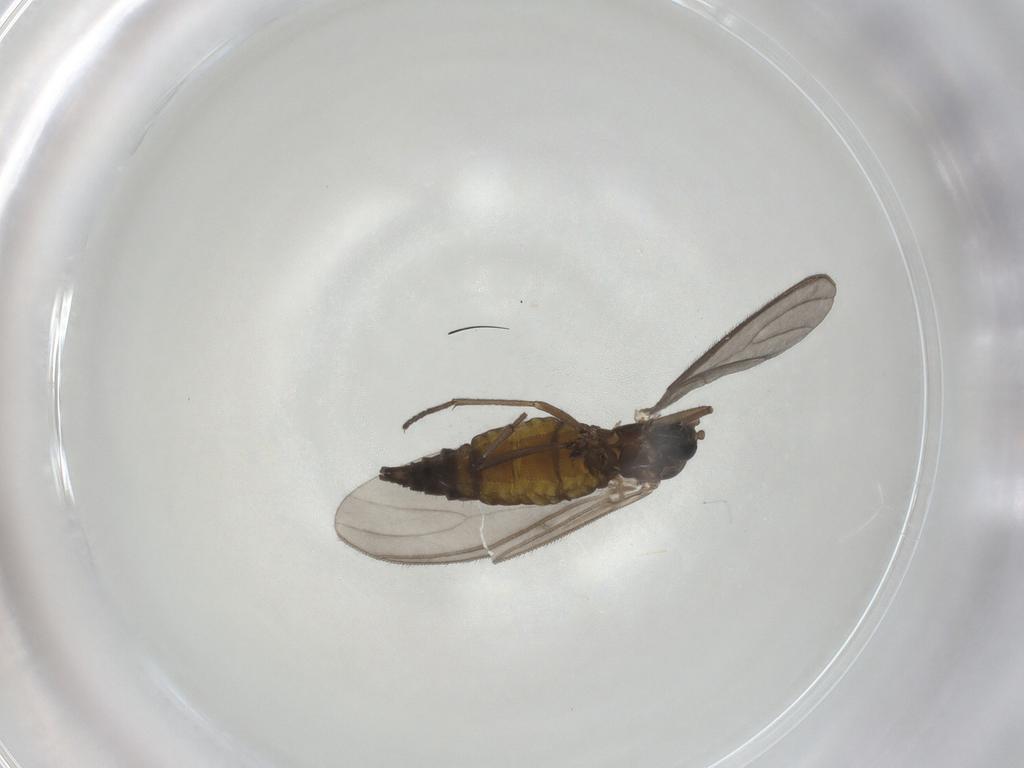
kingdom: Animalia
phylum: Arthropoda
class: Insecta
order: Diptera
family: Sciaridae
